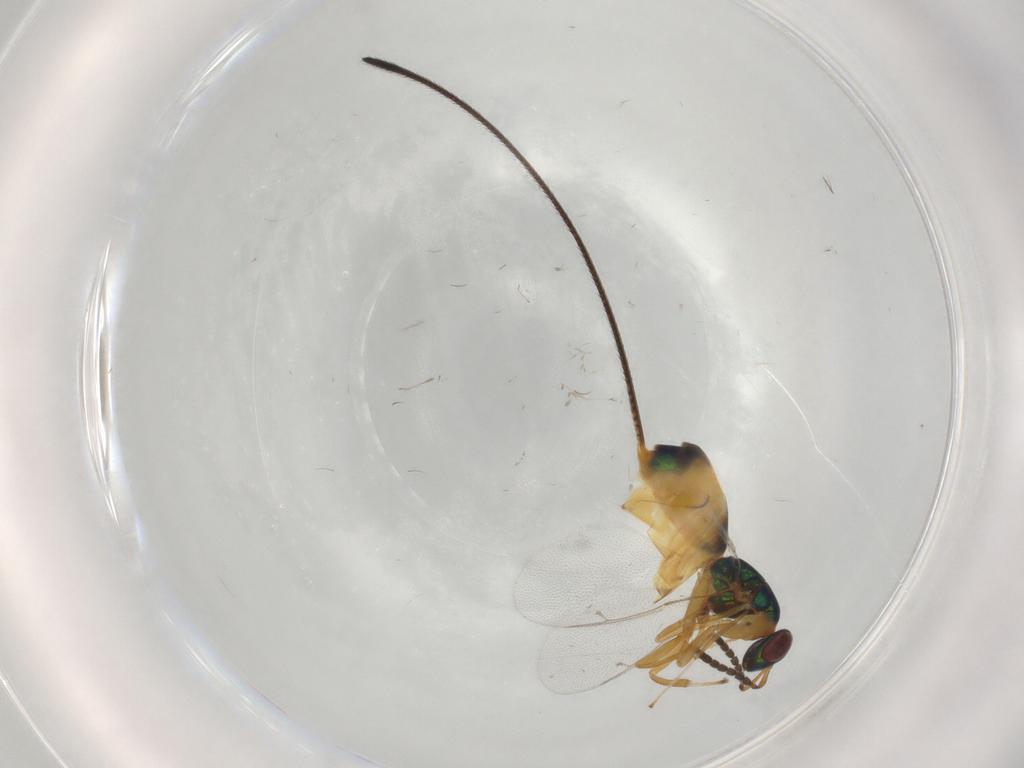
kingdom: Animalia
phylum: Arthropoda
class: Insecta
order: Hymenoptera
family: Pteromalidae
